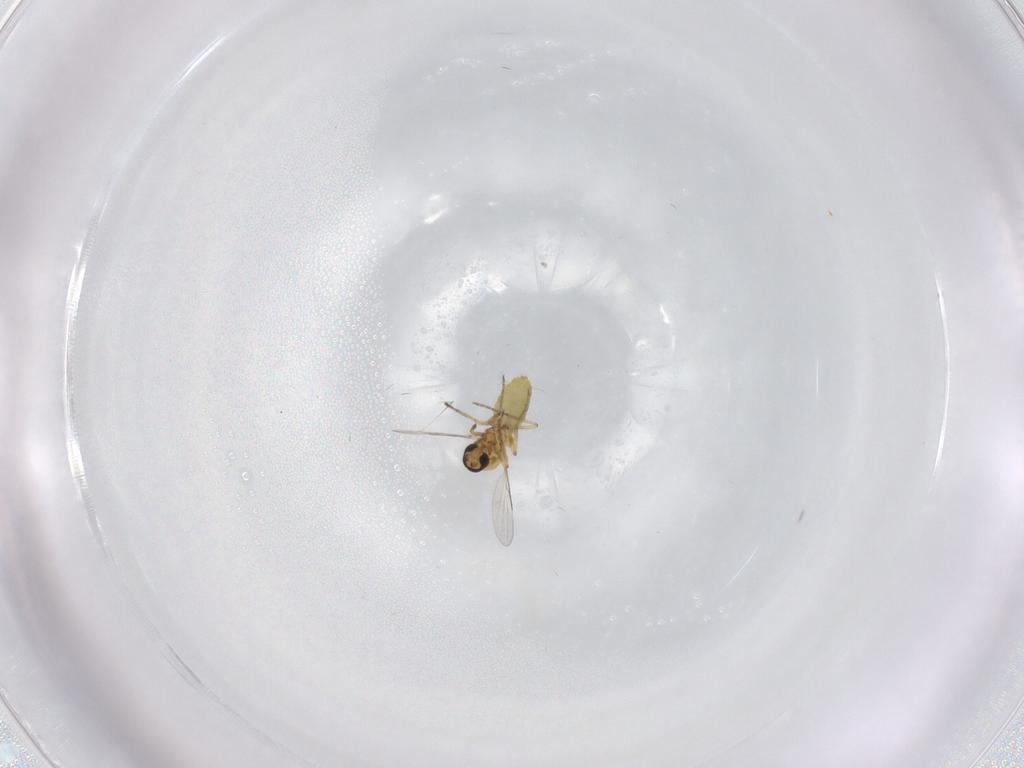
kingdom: Animalia
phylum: Arthropoda
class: Insecta
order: Diptera
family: Ceratopogonidae
